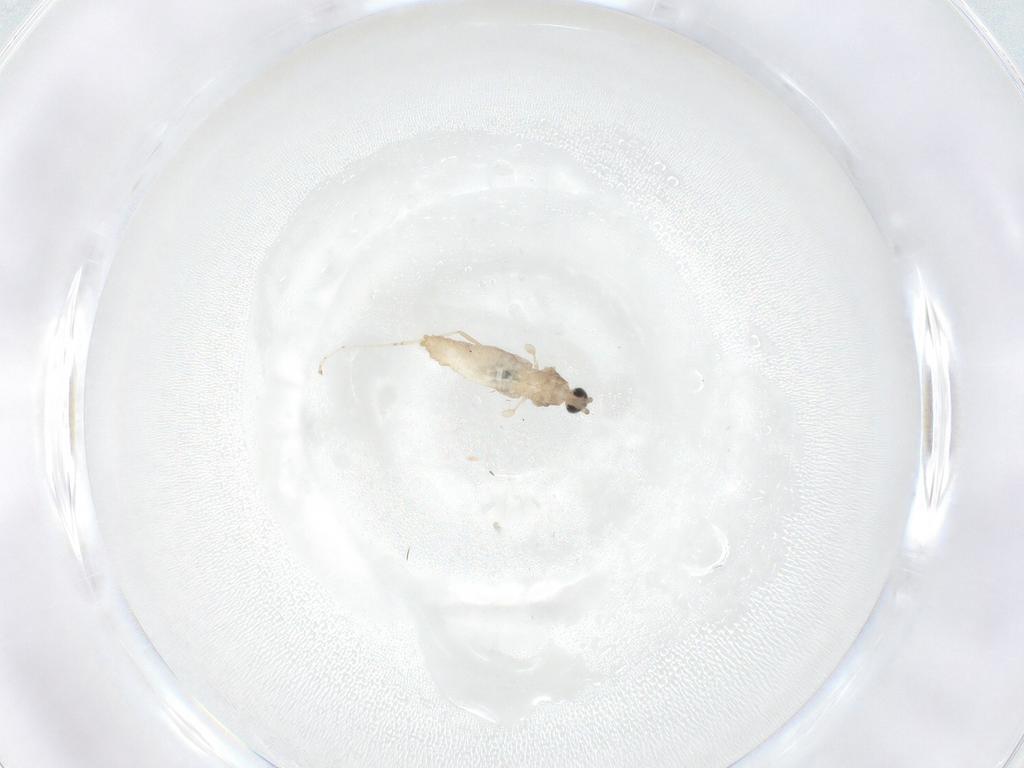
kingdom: Animalia
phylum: Arthropoda
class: Insecta
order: Diptera
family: Cecidomyiidae
